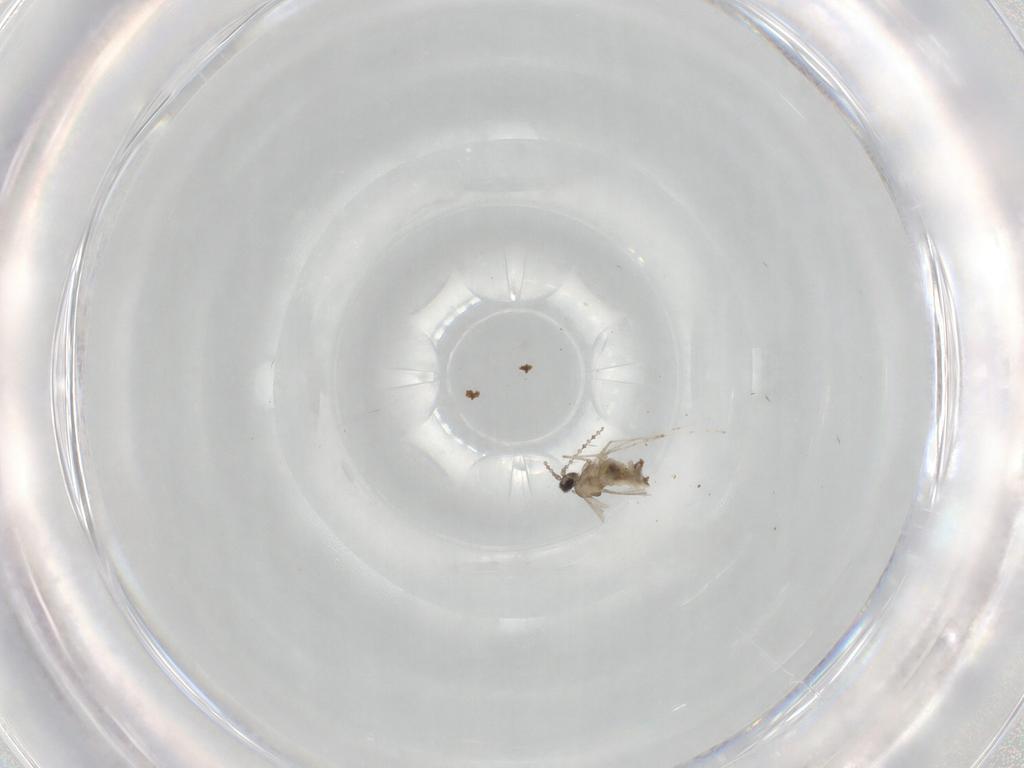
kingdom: Animalia
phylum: Arthropoda
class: Insecta
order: Diptera
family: Cecidomyiidae
